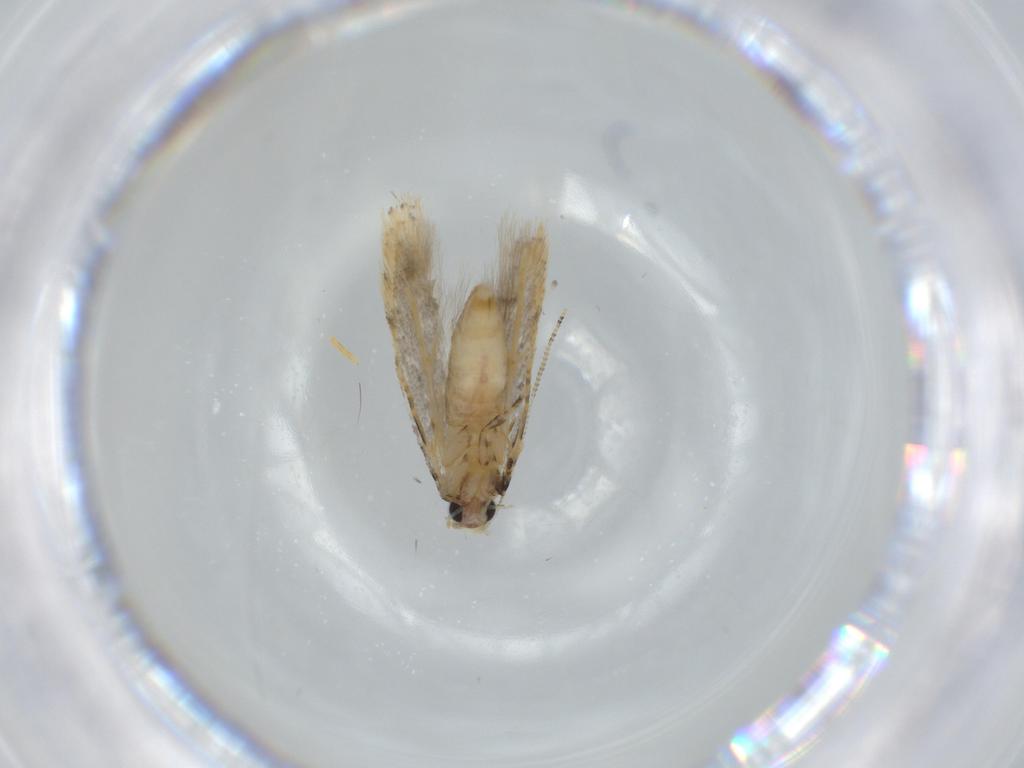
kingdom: Animalia
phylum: Arthropoda
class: Insecta
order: Lepidoptera
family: Tineidae
